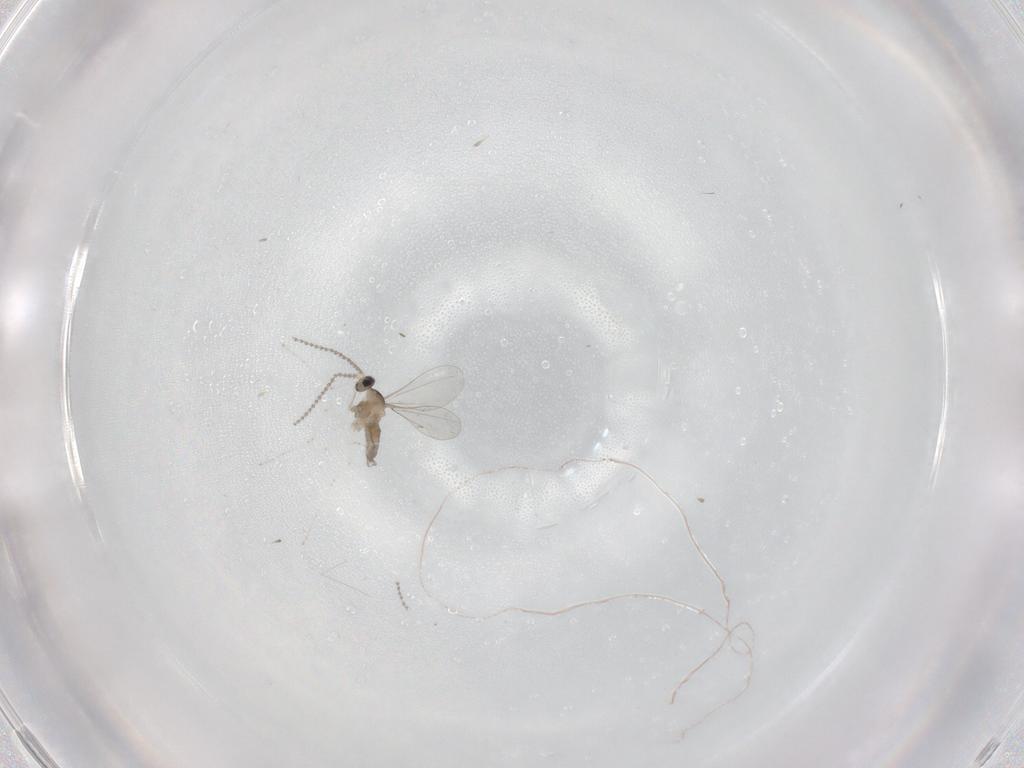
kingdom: Animalia
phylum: Arthropoda
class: Insecta
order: Diptera
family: Cecidomyiidae
